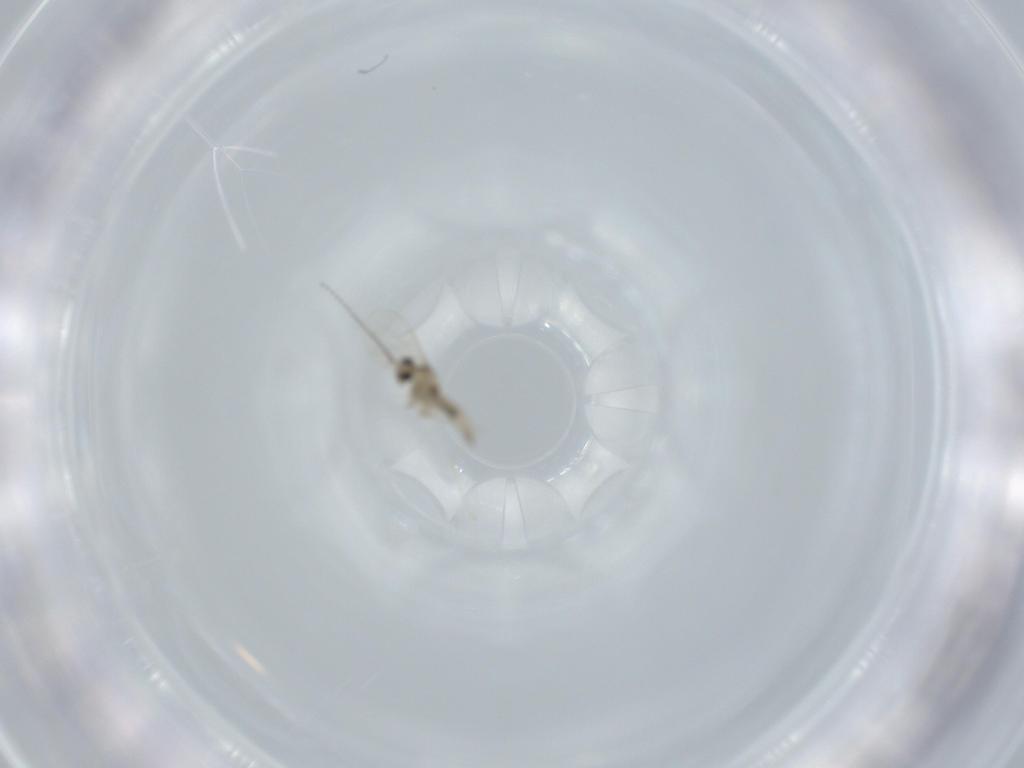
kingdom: Animalia
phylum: Arthropoda
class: Insecta
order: Diptera
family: Cecidomyiidae
